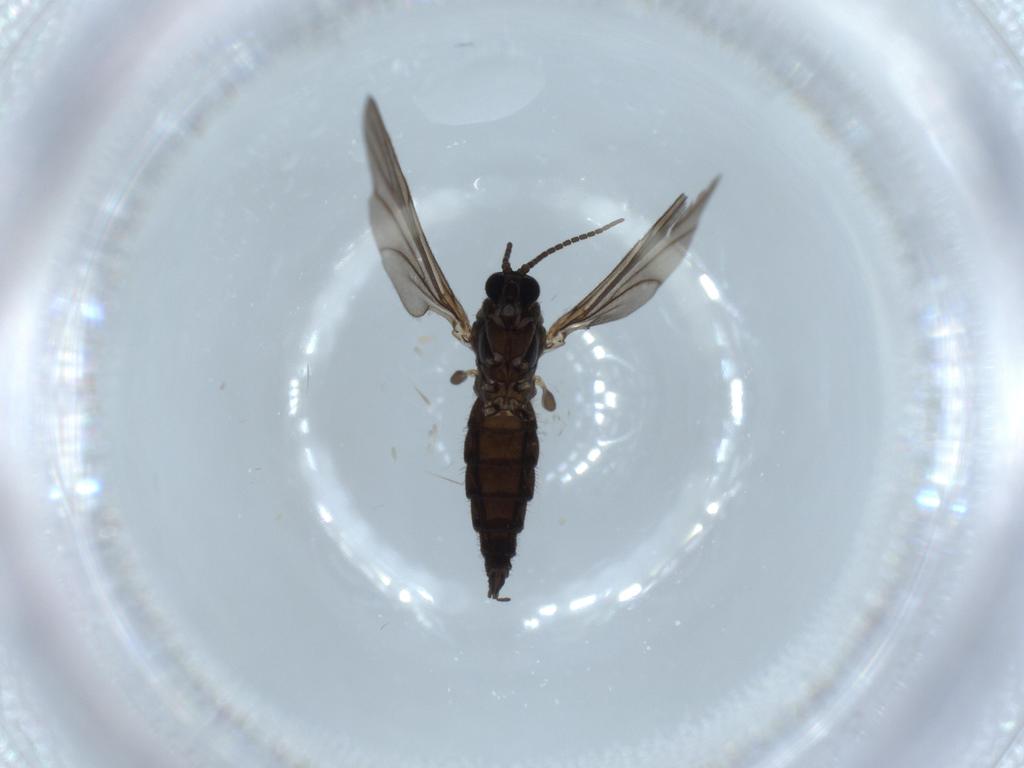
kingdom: Animalia
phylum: Arthropoda
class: Insecta
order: Diptera
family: Sciaridae
